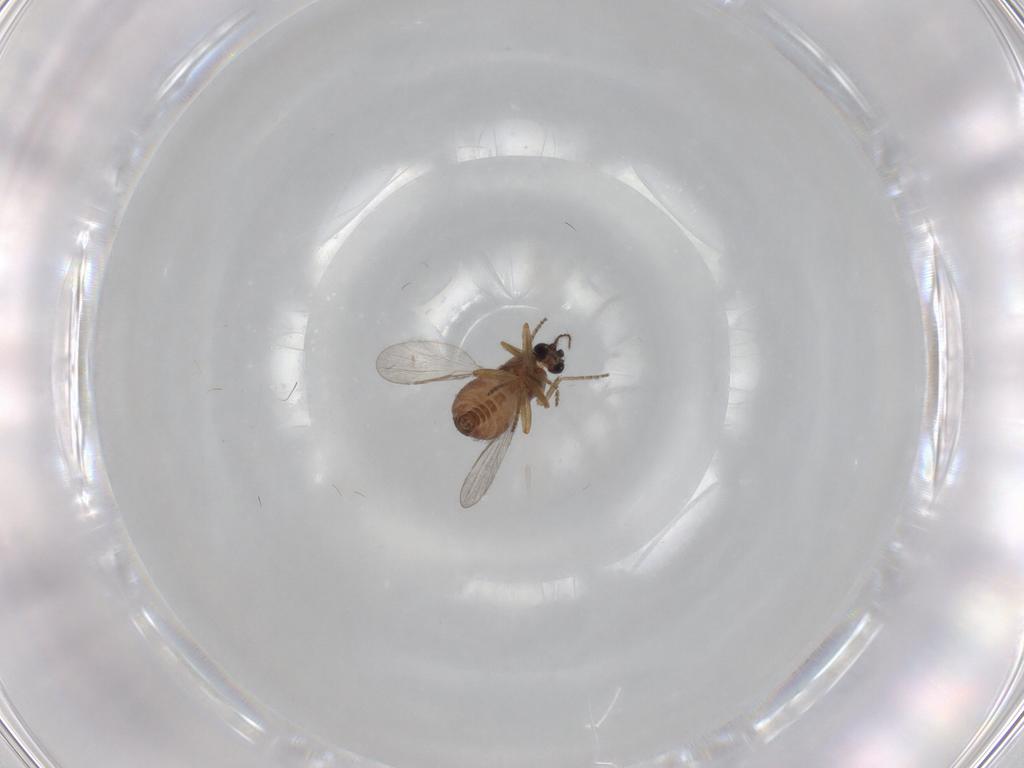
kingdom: Animalia
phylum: Arthropoda
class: Insecta
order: Diptera
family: Ceratopogonidae
